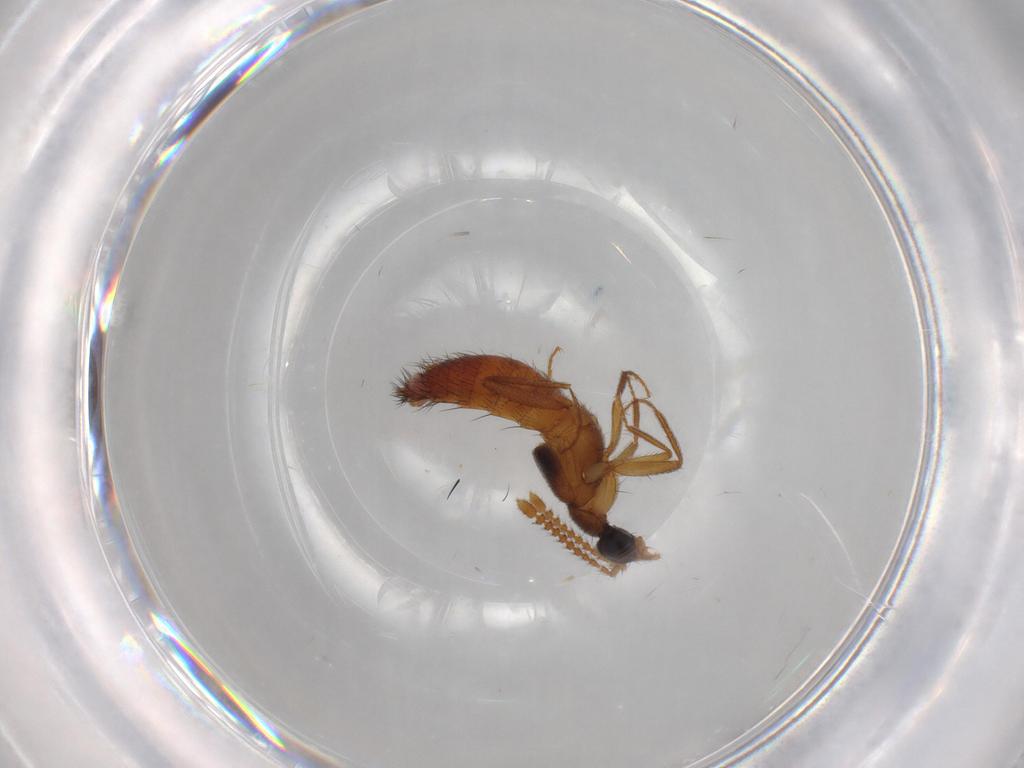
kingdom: Animalia
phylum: Arthropoda
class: Insecta
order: Coleoptera
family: Staphylinidae
